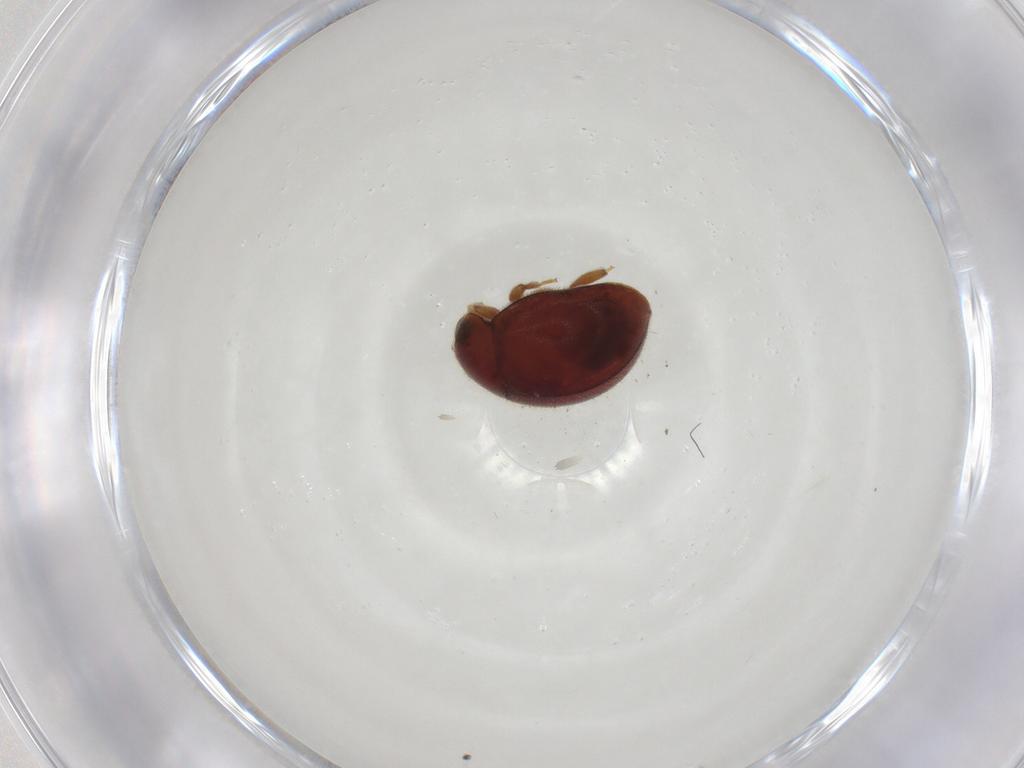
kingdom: Animalia
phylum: Arthropoda
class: Insecta
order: Coleoptera
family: Coccinellidae
